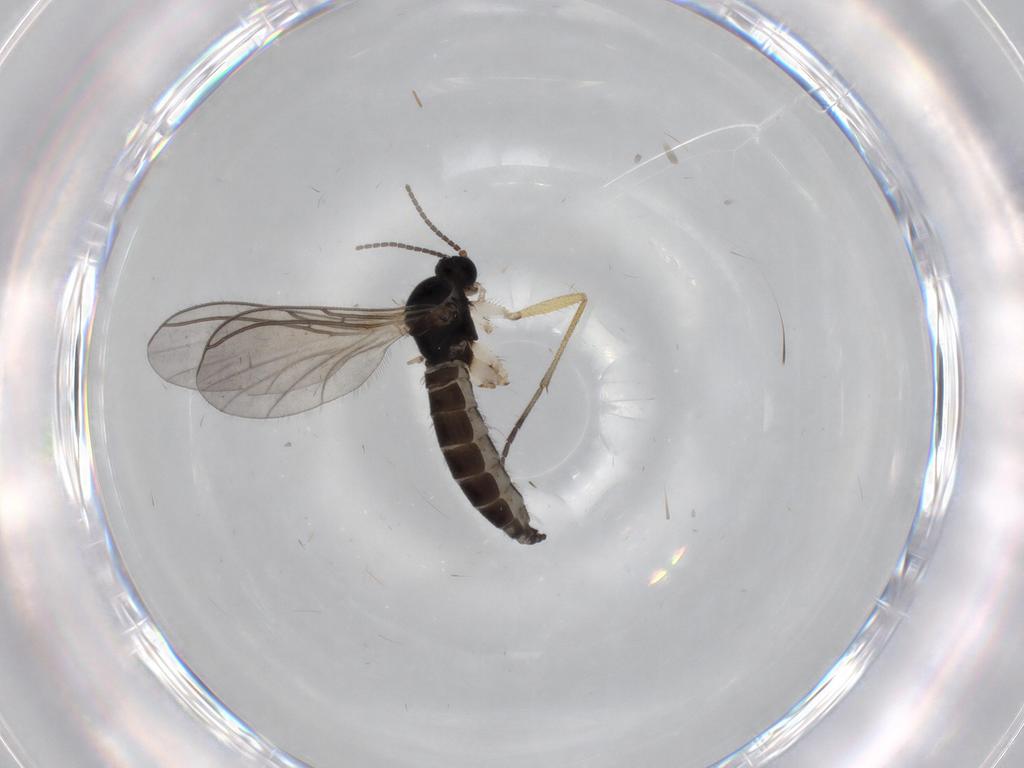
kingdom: Animalia
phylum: Arthropoda
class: Insecta
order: Diptera
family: Sciaridae
